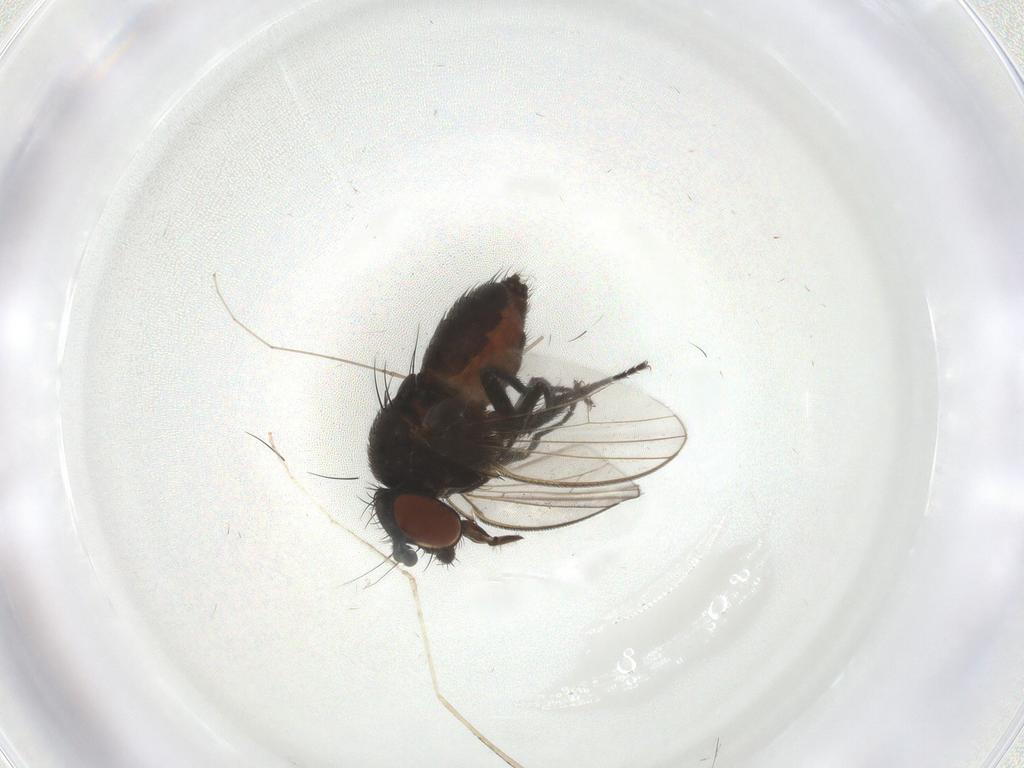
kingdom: Animalia
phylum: Arthropoda
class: Insecta
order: Diptera
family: Milichiidae
